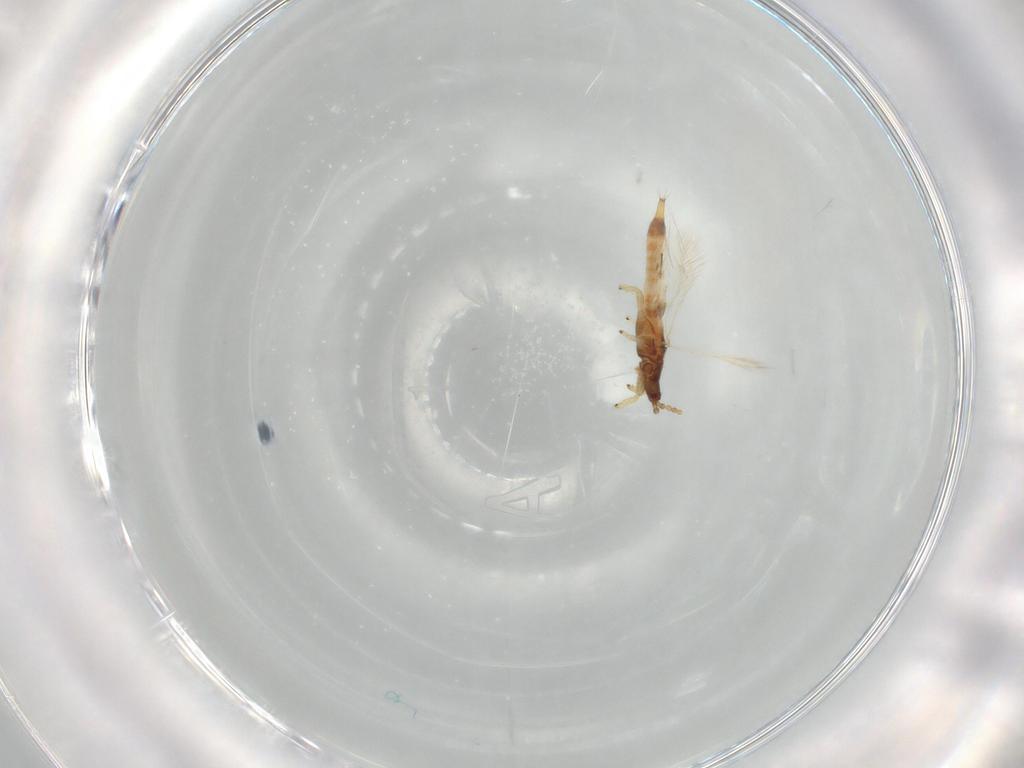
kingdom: Animalia
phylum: Arthropoda
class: Insecta
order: Thysanoptera
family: Phlaeothripidae
